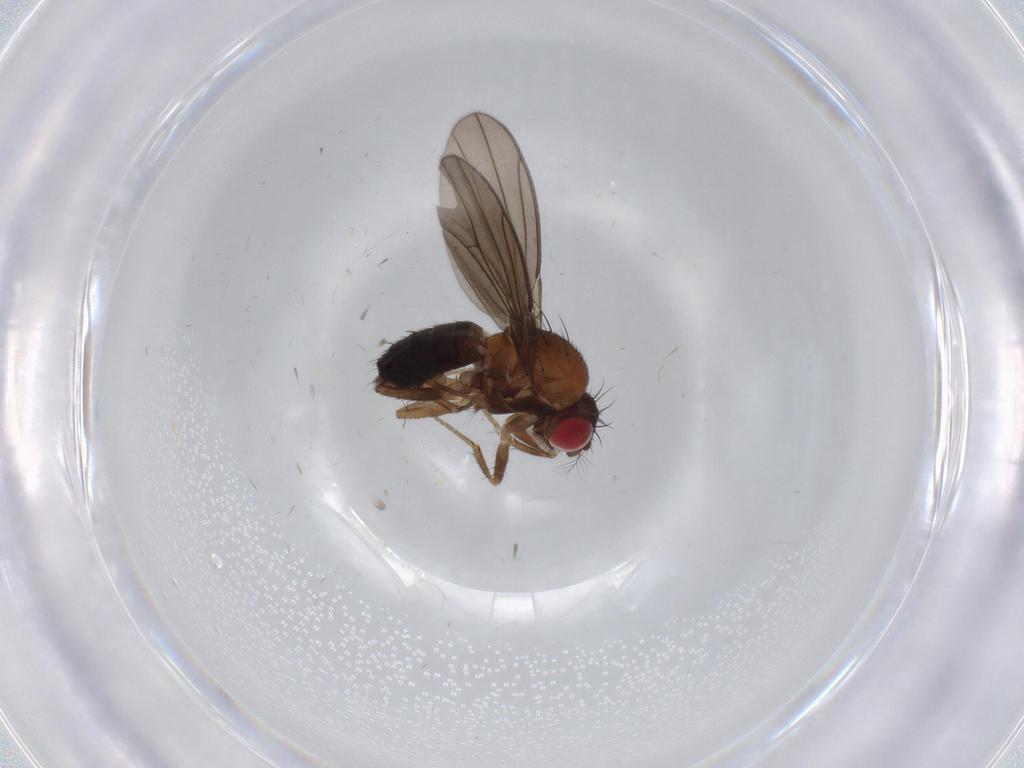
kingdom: Animalia
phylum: Arthropoda
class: Insecta
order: Diptera
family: Drosophilidae
